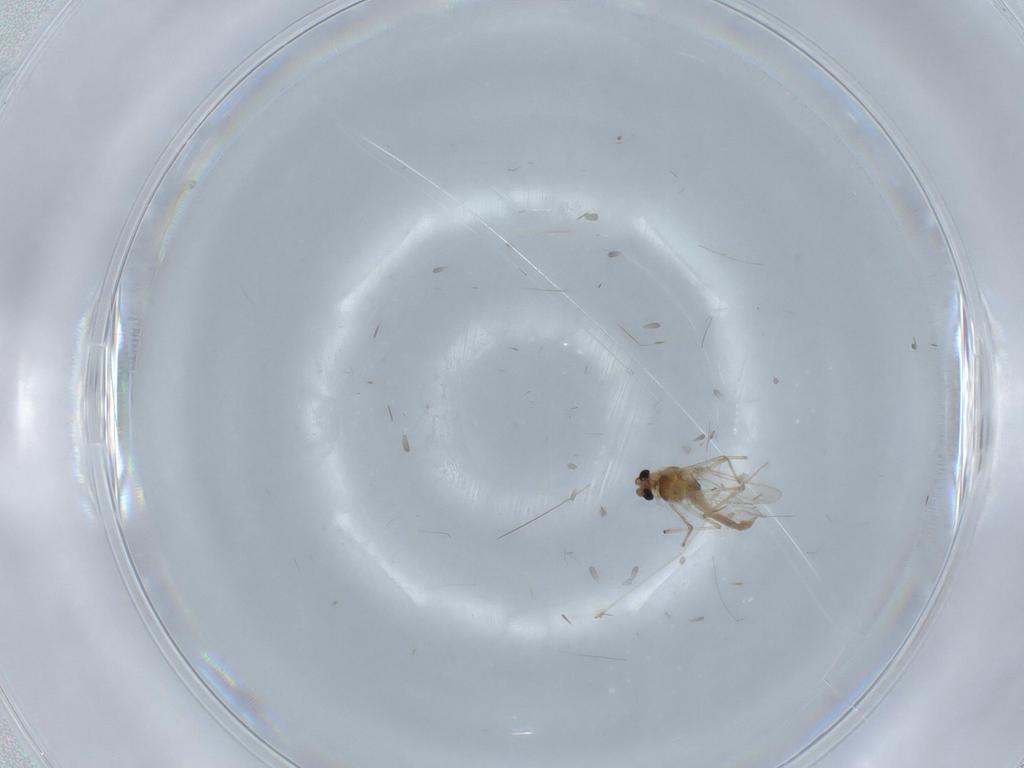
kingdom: Animalia
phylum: Arthropoda
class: Insecta
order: Diptera
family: Chironomidae
